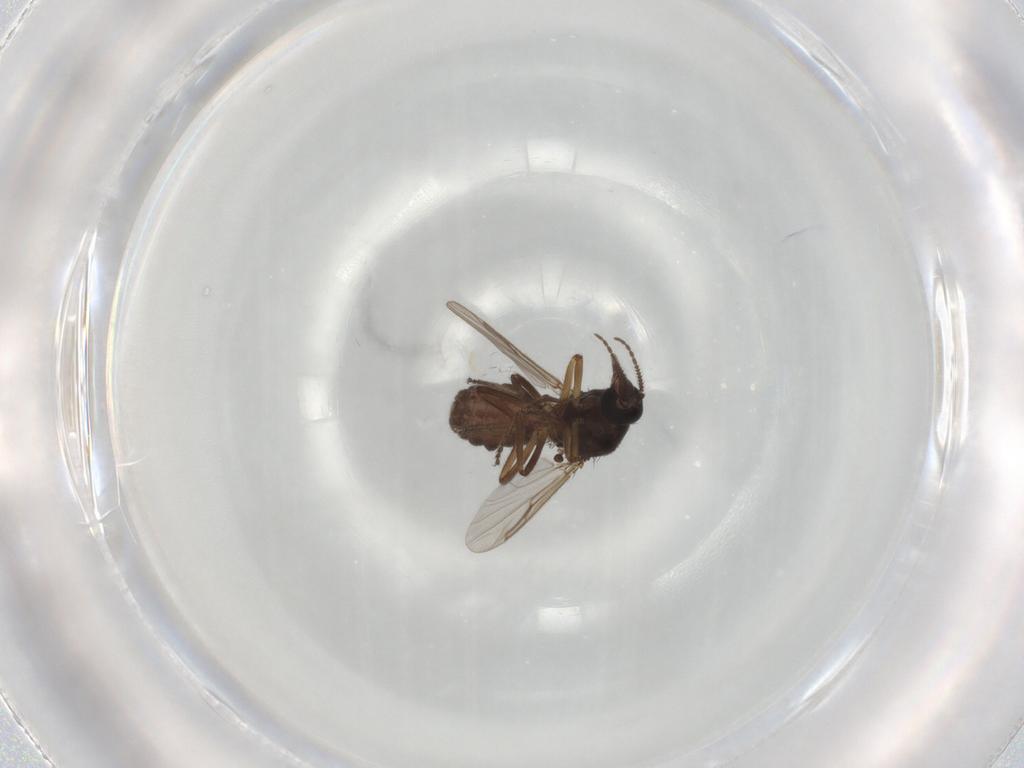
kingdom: Animalia
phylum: Arthropoda
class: Insecta
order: Diptera
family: Ceratopogonidae
